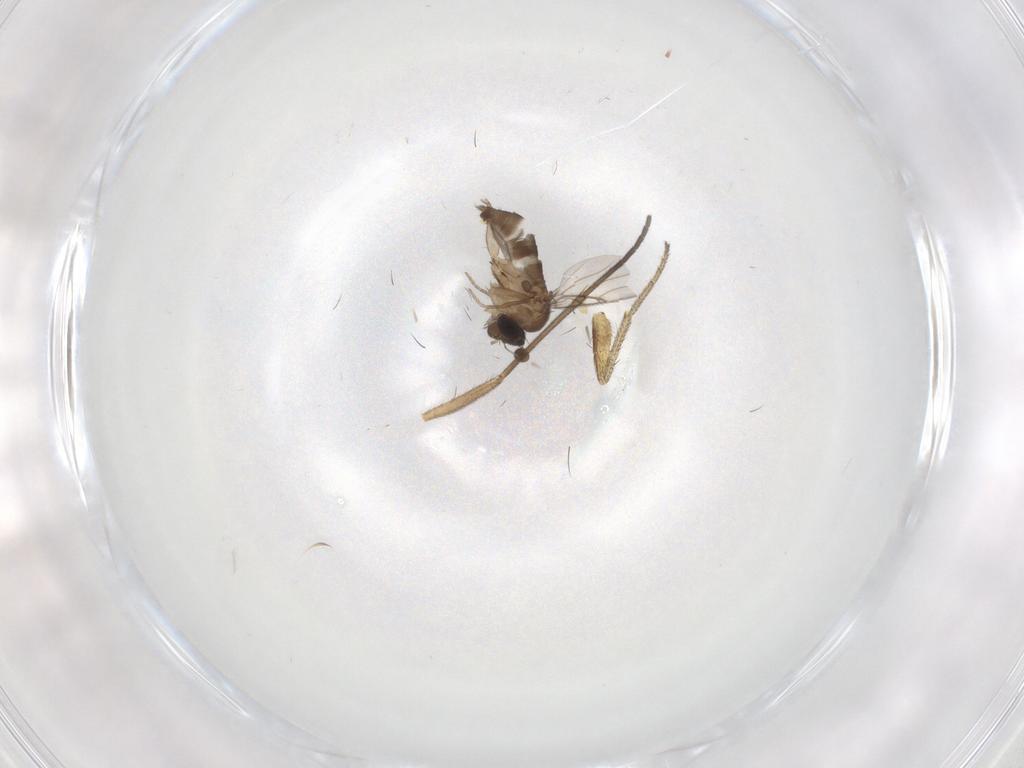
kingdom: Animalia
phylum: Arthropoda
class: Insecta
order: Diptera
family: Phoridae
